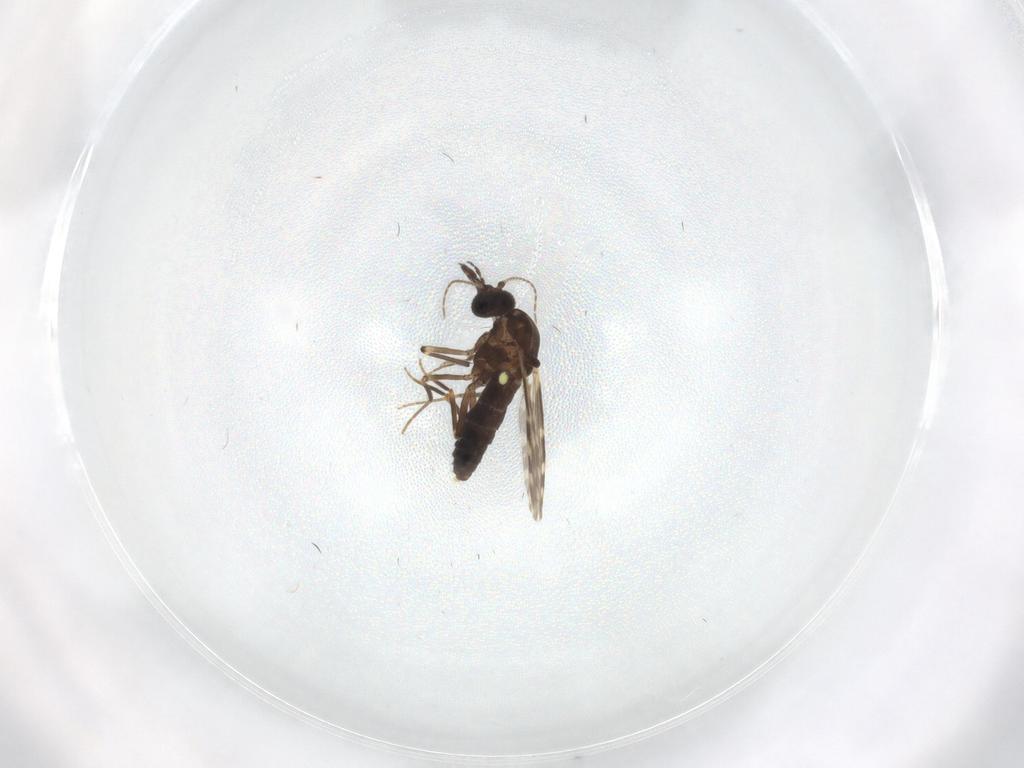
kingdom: Animalia
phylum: Arthropoda
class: Insecta
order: Diptera
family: Ceratopogonidae
